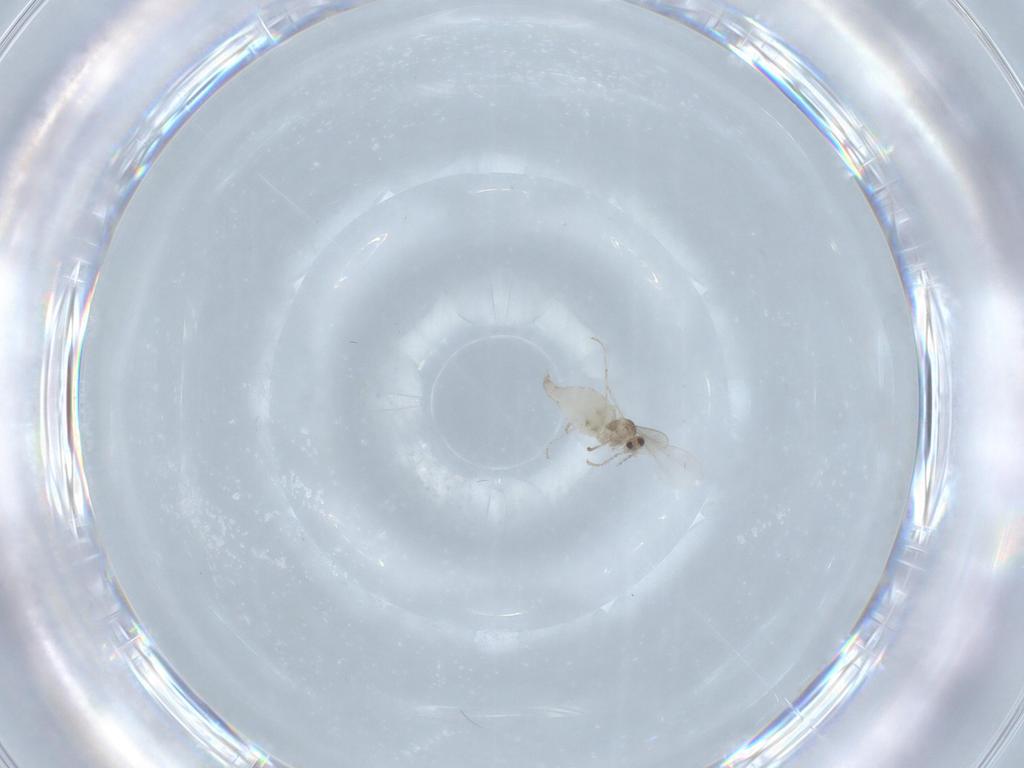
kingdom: Animalia
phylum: Arthropoda
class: Insecta
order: Diptera
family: Cecidomyiidae
